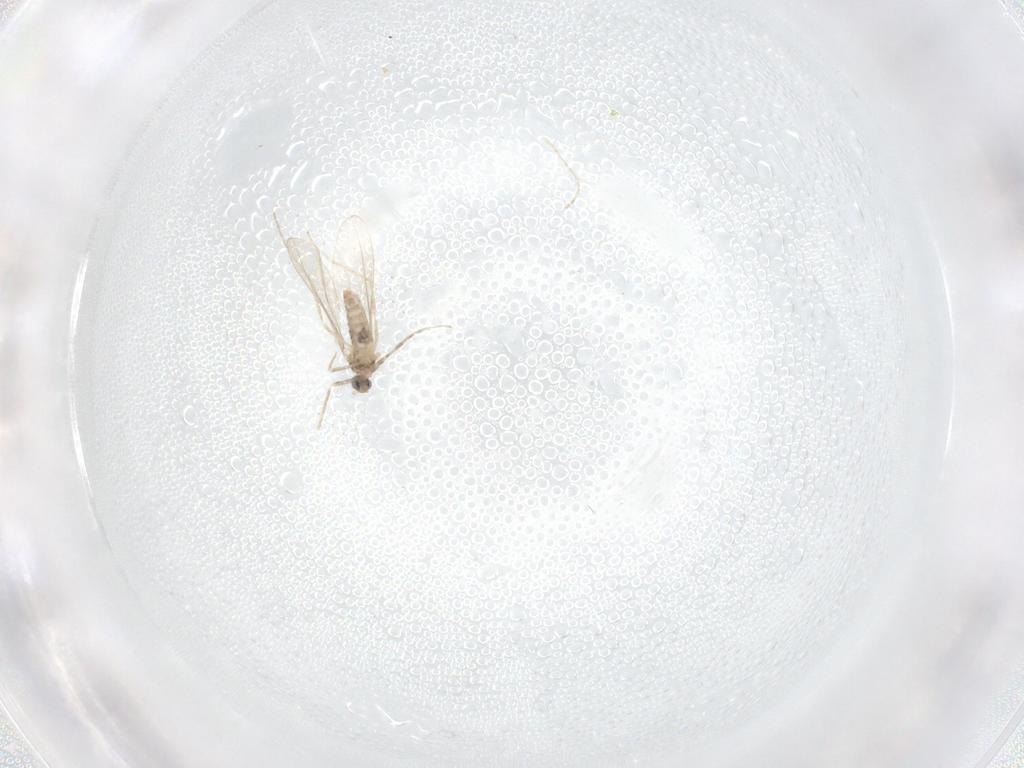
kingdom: Animalia
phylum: Arthropoda
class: Insecta
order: Diptera
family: Cecidomyiidae
